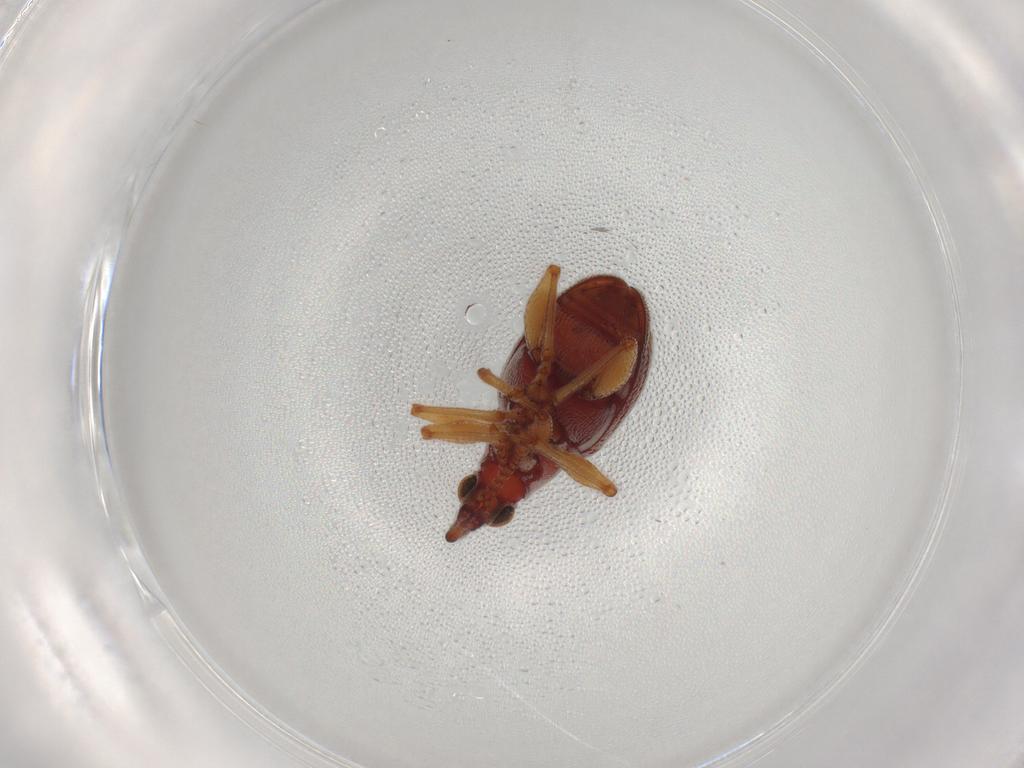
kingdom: Animalia
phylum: Arthropoda
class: Insecta
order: Coleoptera
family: Brentidae
